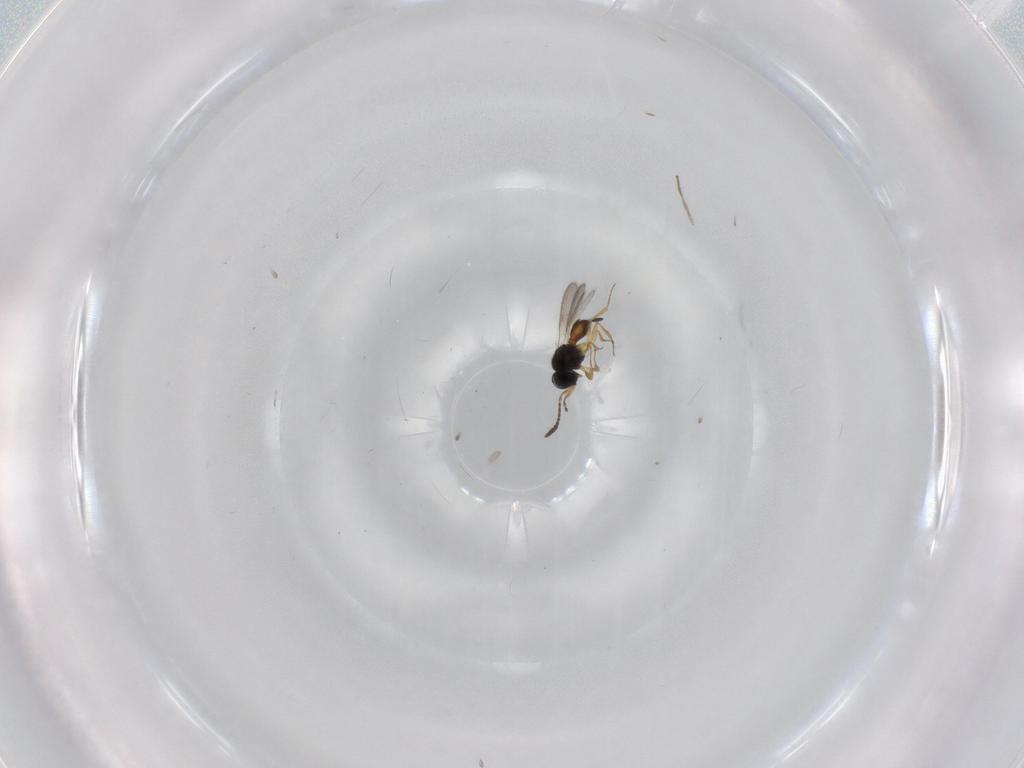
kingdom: Animalia
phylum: Arthropoda
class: Insecta
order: Hymenoptera
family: Scelionidae
